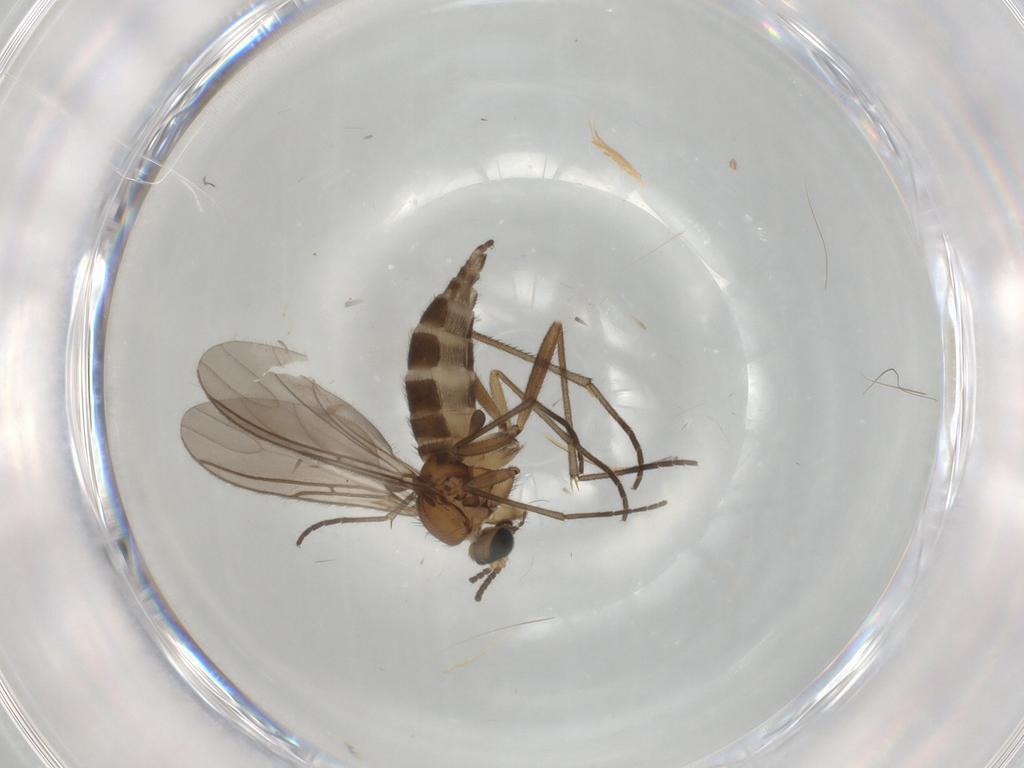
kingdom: Animalia
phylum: Arthropoda
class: Insecta
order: Diptera
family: Sciaridae
